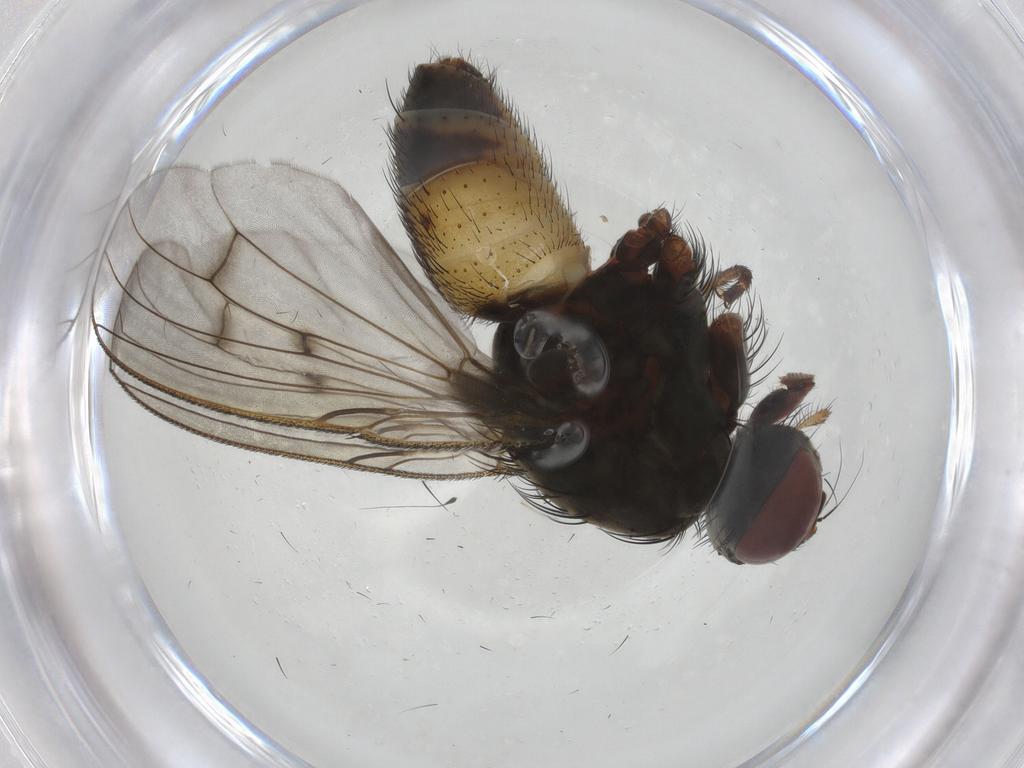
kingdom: Animalia
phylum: Arthropoda
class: Insecta
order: Diptera
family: Muscidae
